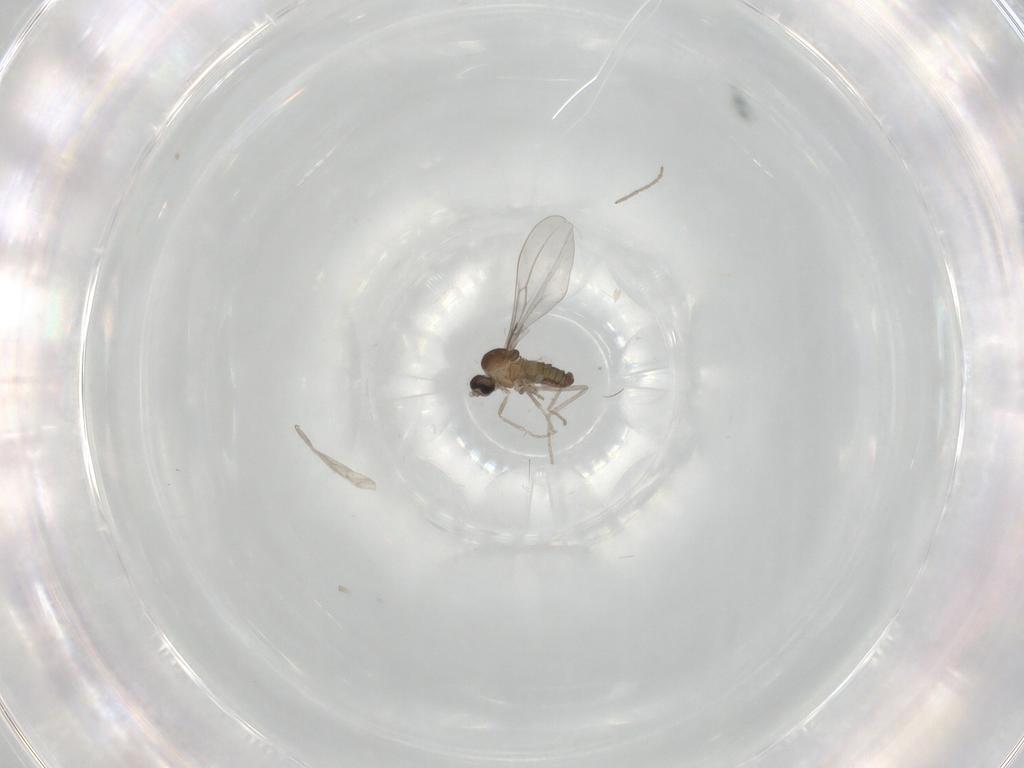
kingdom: Animalia
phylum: Arthropoda
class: Insecta
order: Diptera
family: Cecidomyiidae
